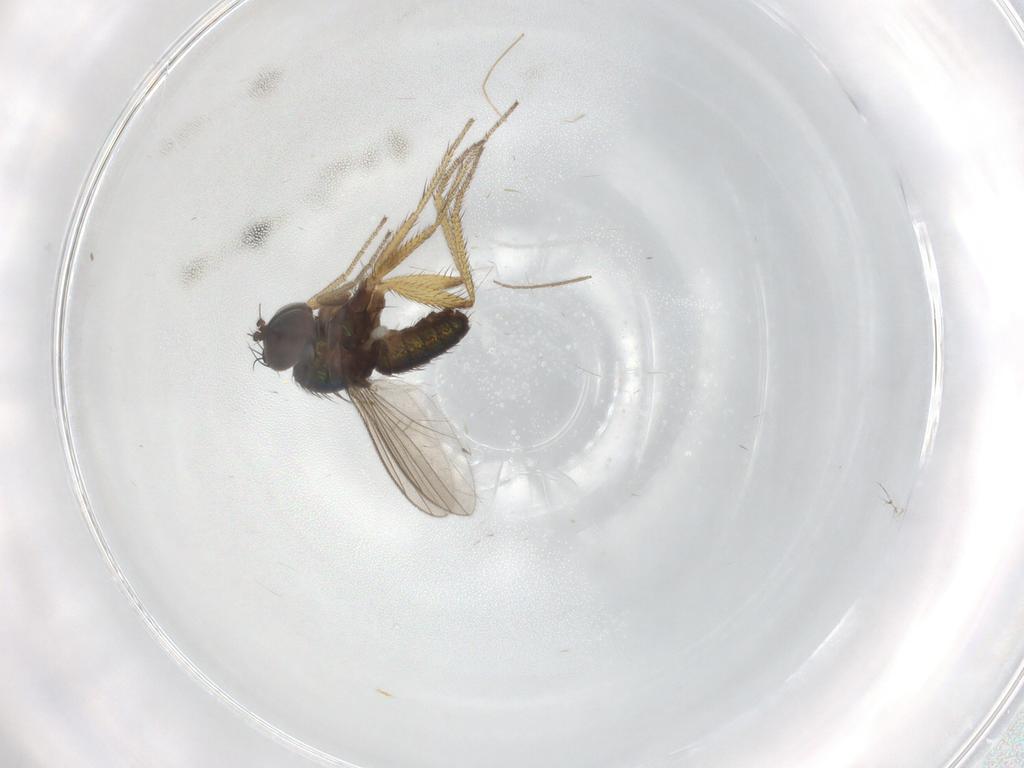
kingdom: Animalia
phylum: Arthropoda
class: Insecta
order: Diptera
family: Chironomidae
